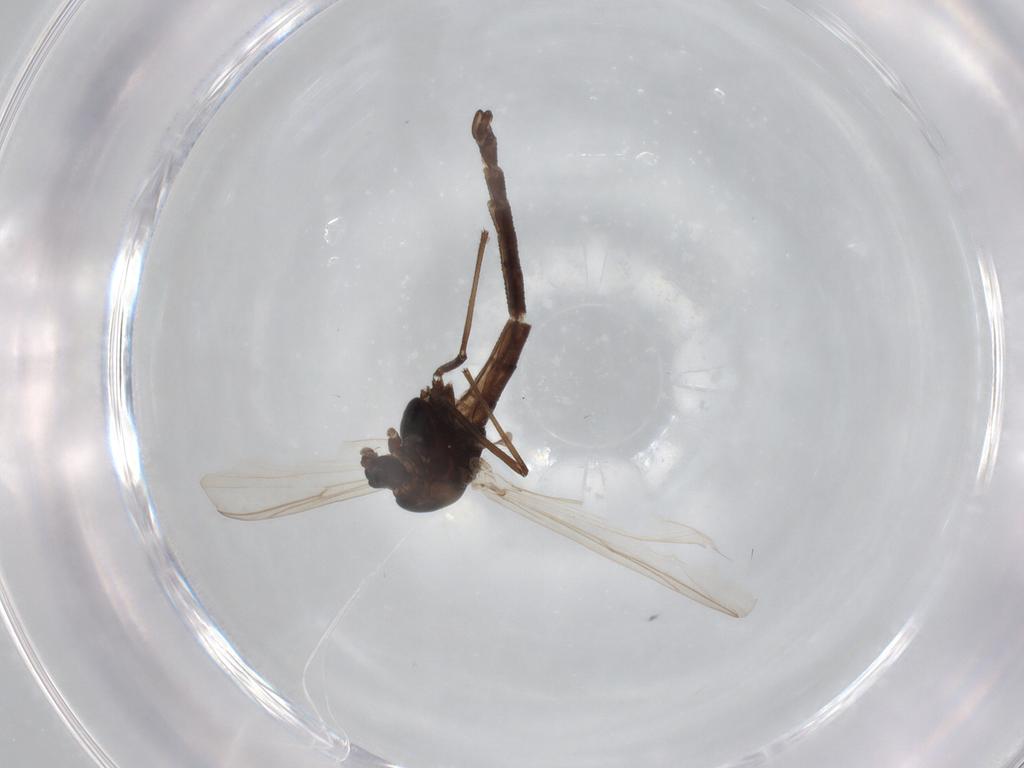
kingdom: Animalia
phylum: Arthropoda
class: Insecta
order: Diptera
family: Chironomidae
